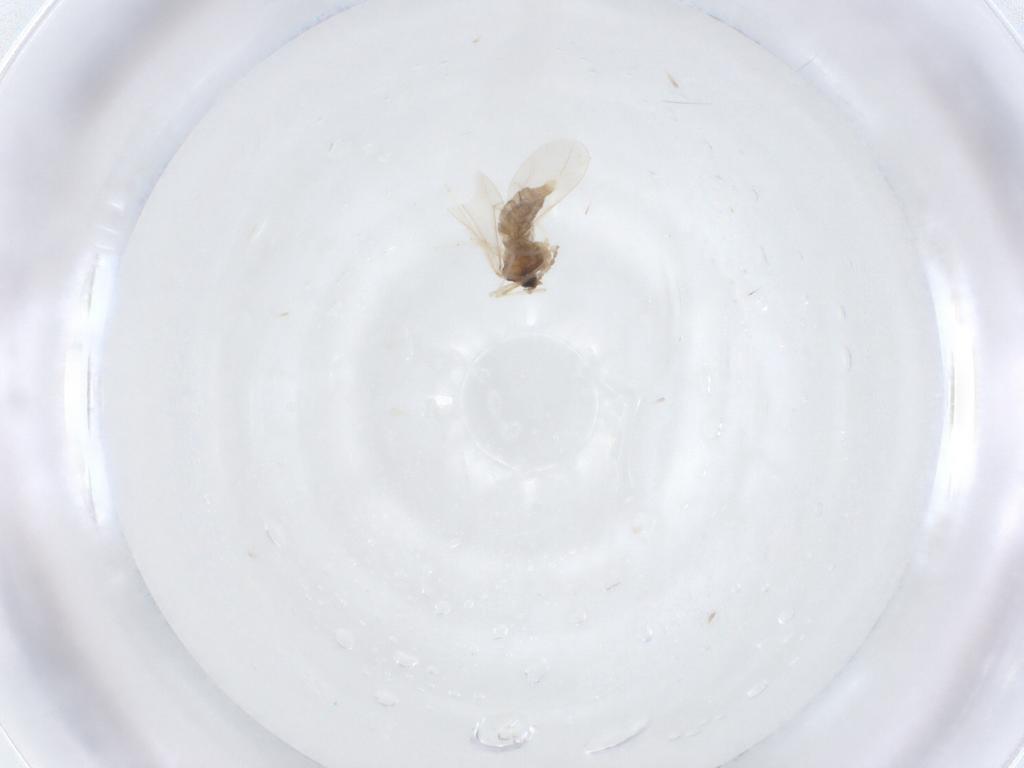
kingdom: Animalia
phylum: Arthropoda
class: Insecta
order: Diptera
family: Cecidomyiidae
